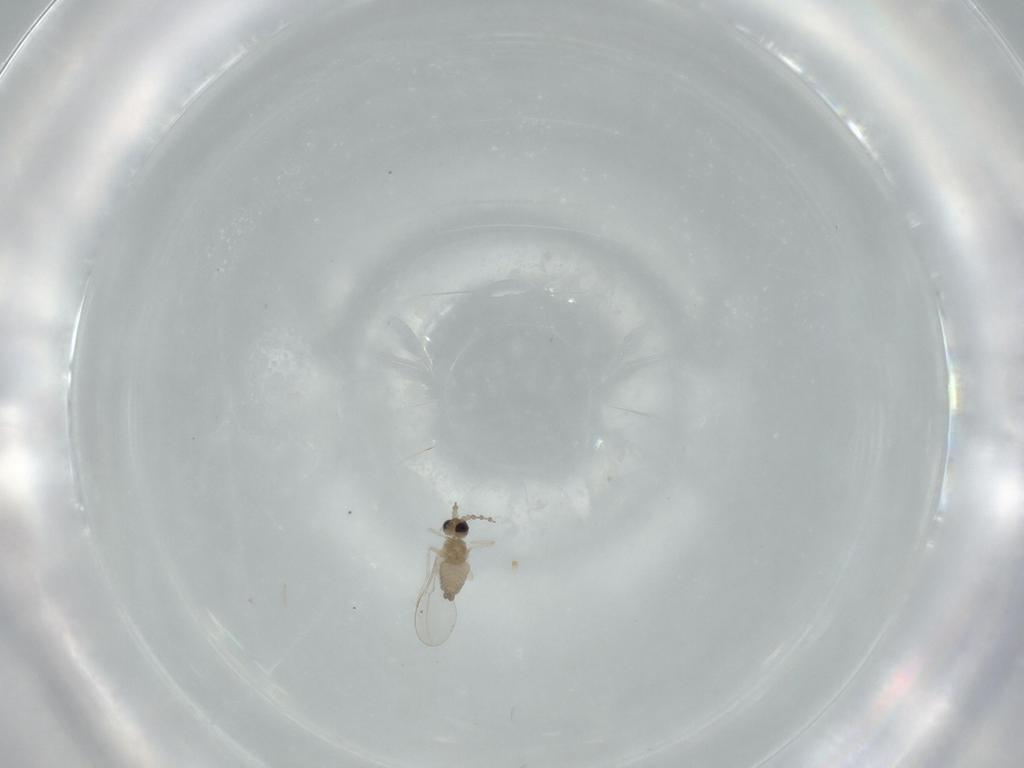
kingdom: Animalia
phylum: Arthropoda
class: Insecta
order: Diptera
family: Cecidomyiidae
